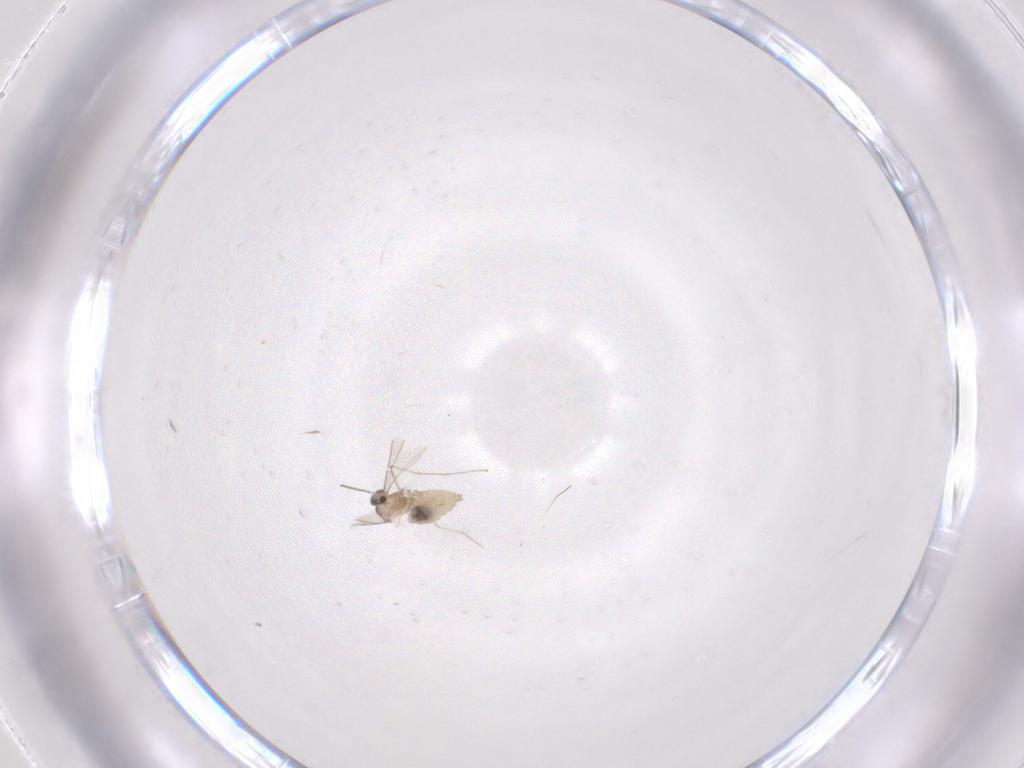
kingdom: Animalia
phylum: Arthropoda
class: Insecta
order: Diptera
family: Cecidomyiidae
